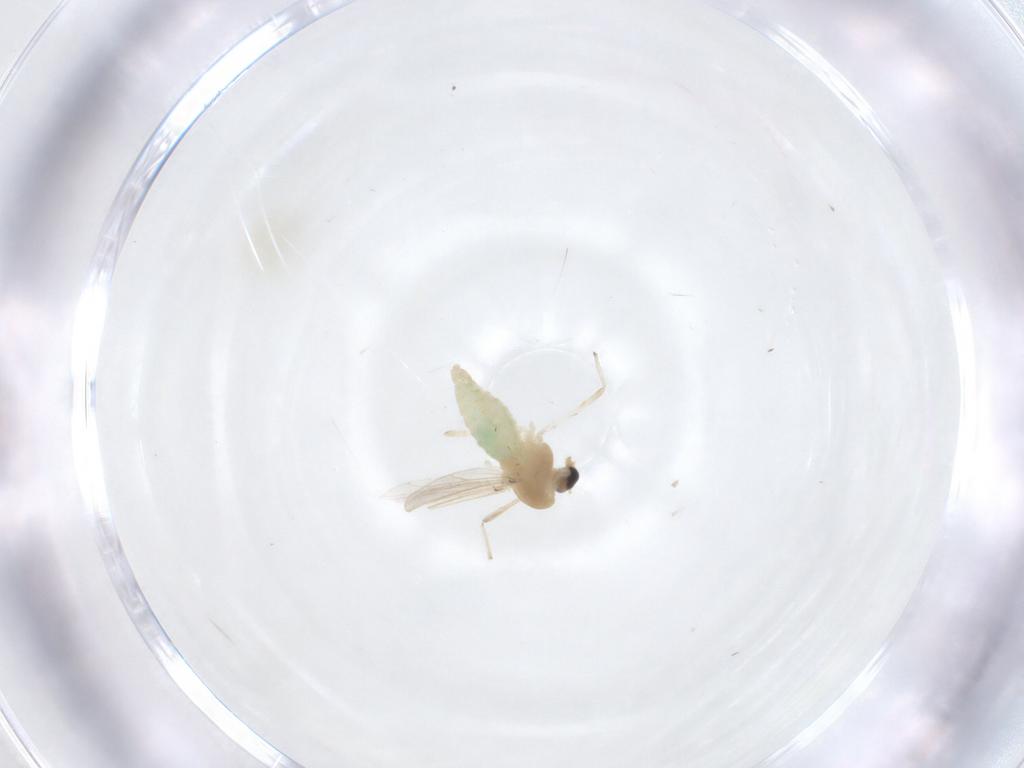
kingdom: Animalia
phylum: Arthropoda
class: Insecta
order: Diptera
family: Chironomidae
